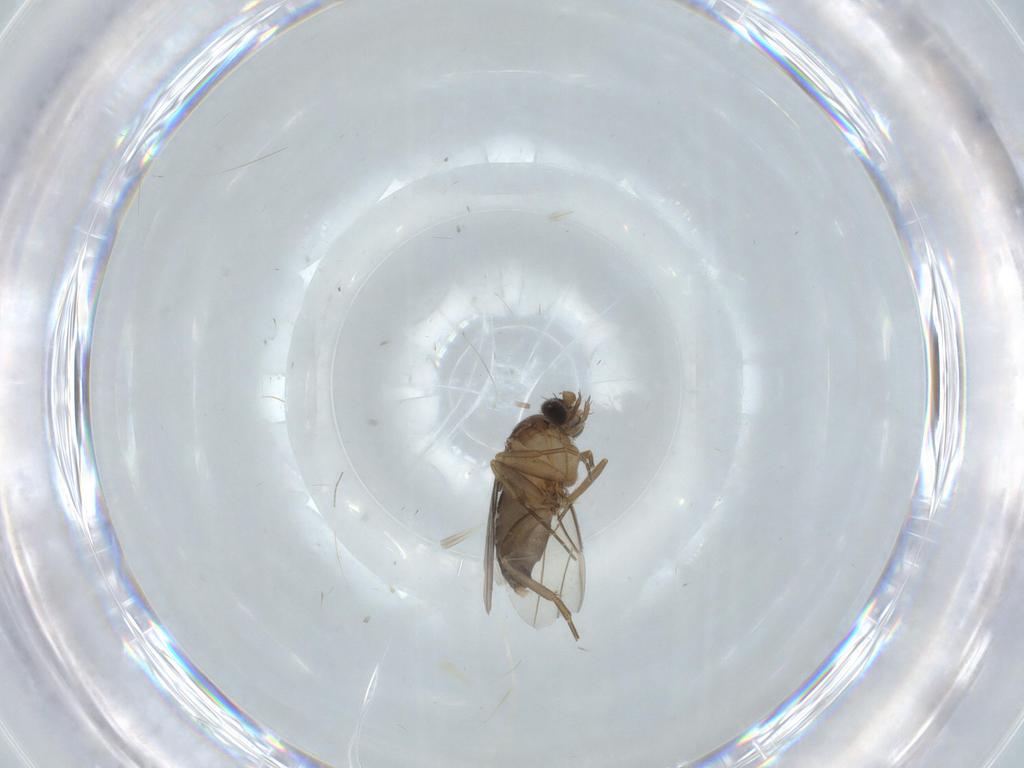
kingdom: Animalia
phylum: Arthropoda
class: Insecta
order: Diptera
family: Phoridae
